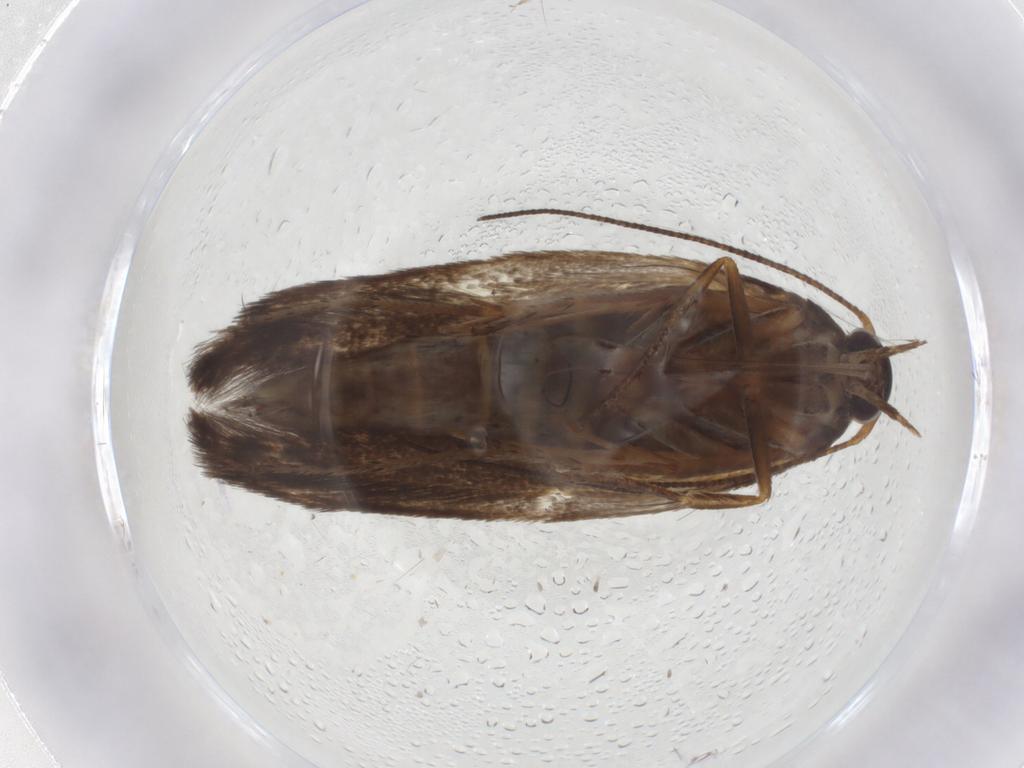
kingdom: Animalia
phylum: Arthropoda
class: Insecta
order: Lepidoptera
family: Scythrididae
